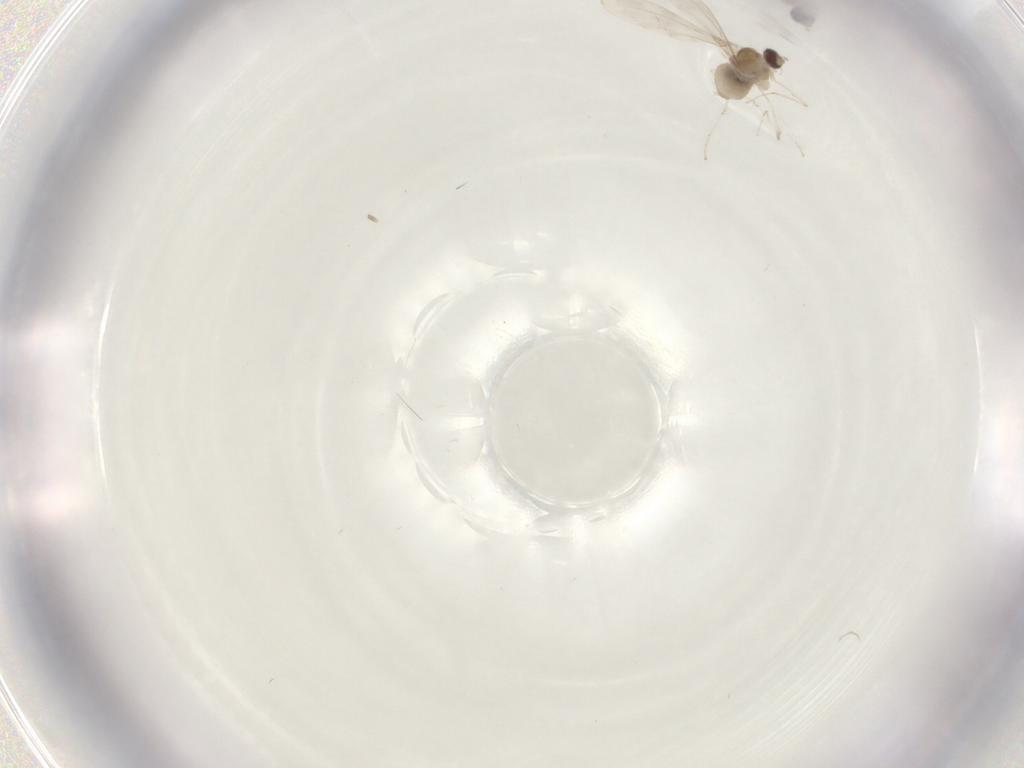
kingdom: Animalia
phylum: Arthropoda
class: Insecta
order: Diptera
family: Cecidomyiidae
